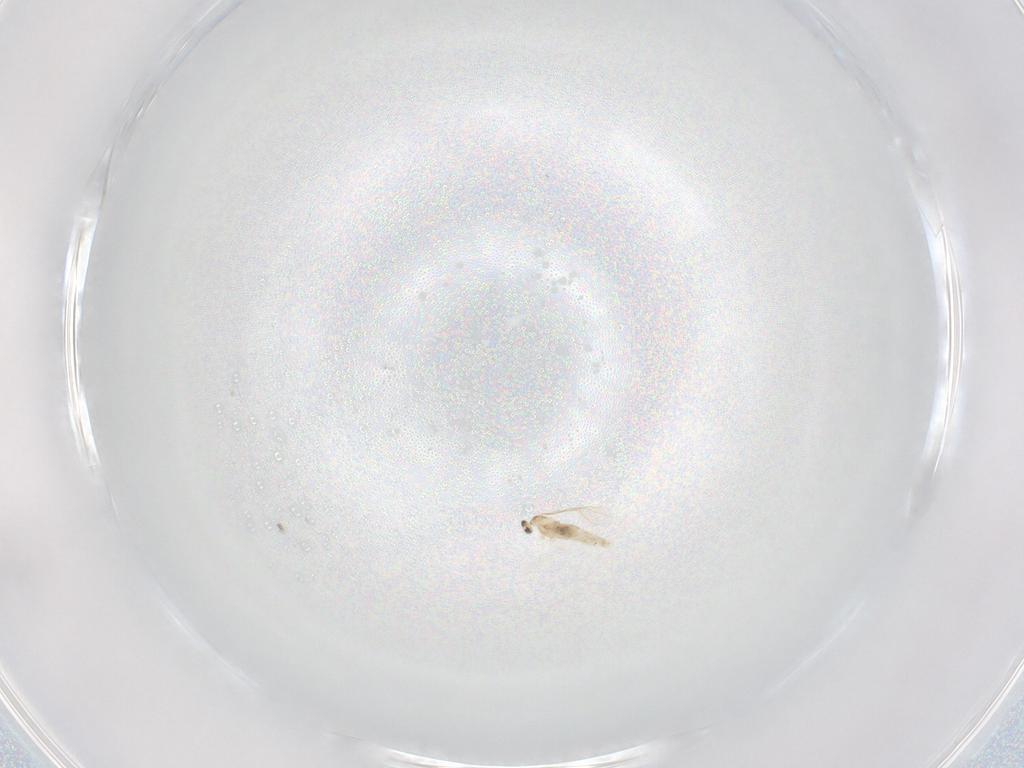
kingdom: Animalia
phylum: Arthropoda
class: Insecta
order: Diptera
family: Cecidomyiidae
